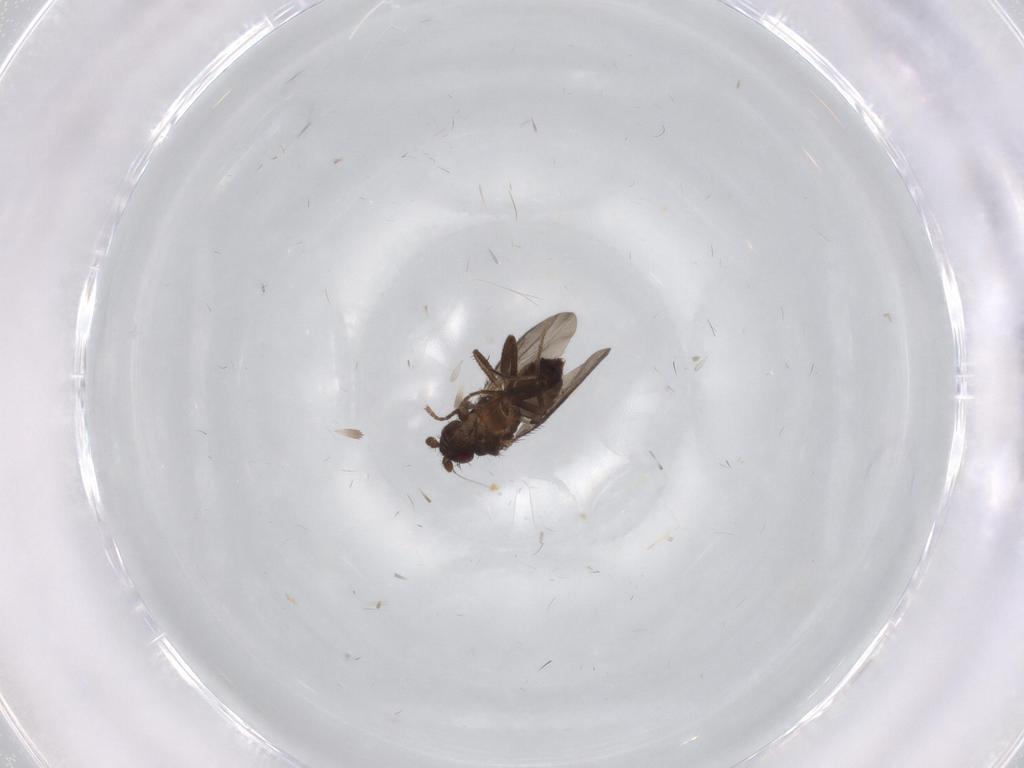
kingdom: Animalia
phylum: Arthropoda
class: Insecta
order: Diptera
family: Sphaeroceridae
